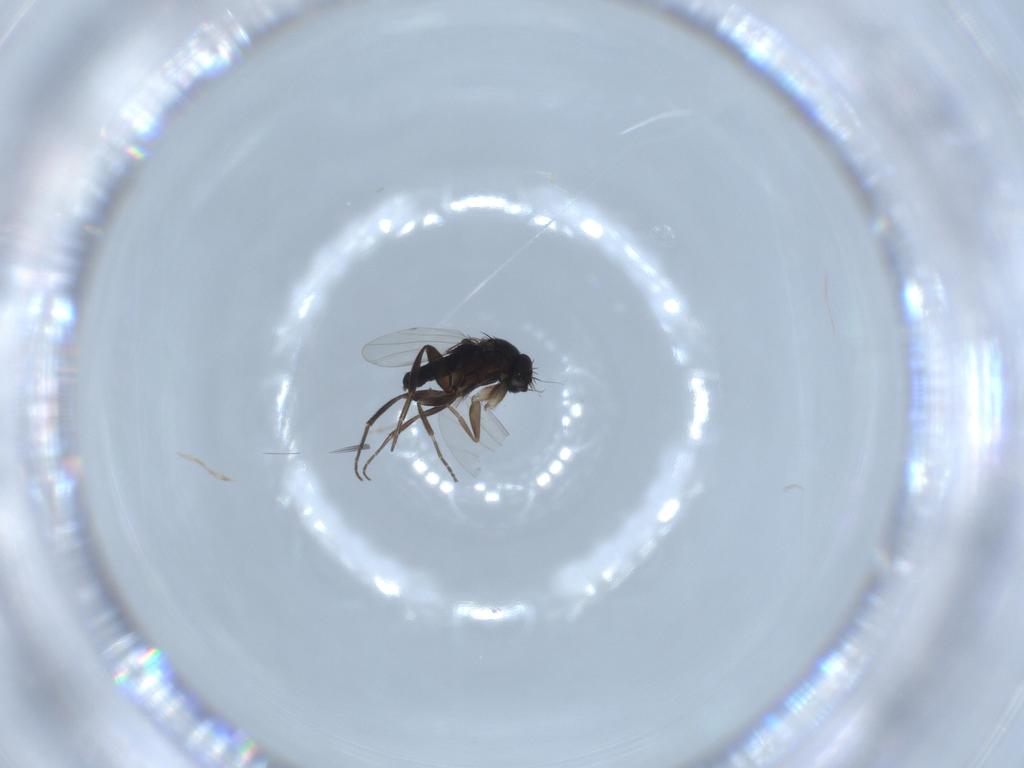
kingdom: Animalia
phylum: Arthropoda
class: Insecta
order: Diptera
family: Phoridae
